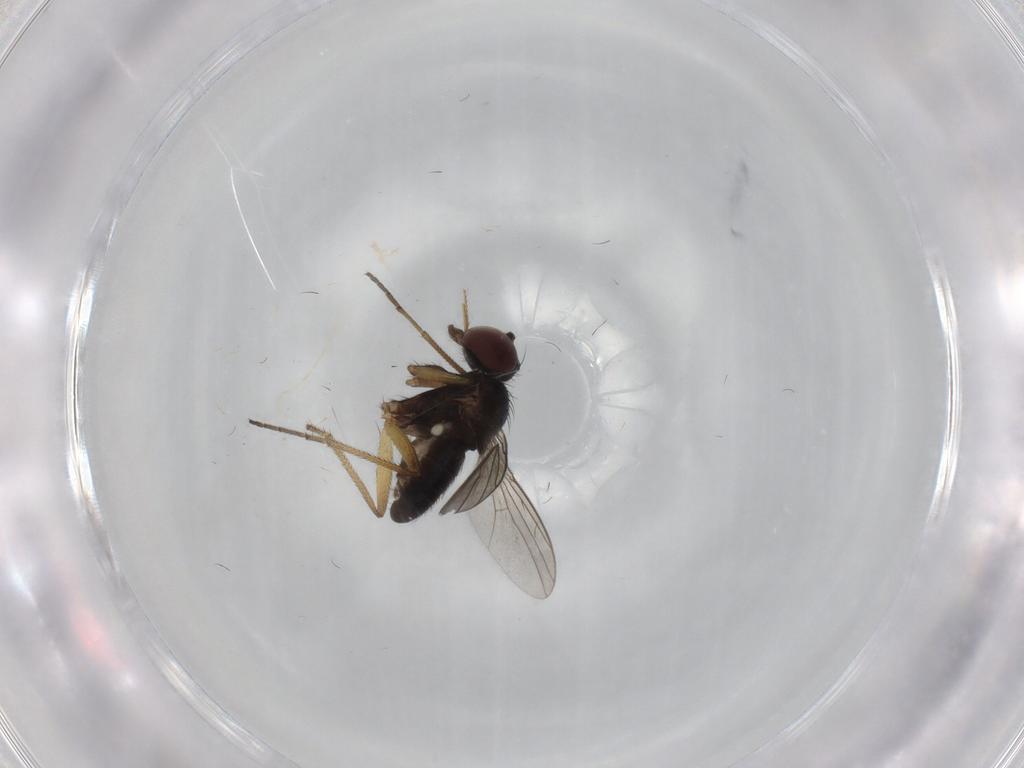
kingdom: Animalia
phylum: Arthropoda
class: Insecta
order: Diptera
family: Dolichopodidae
